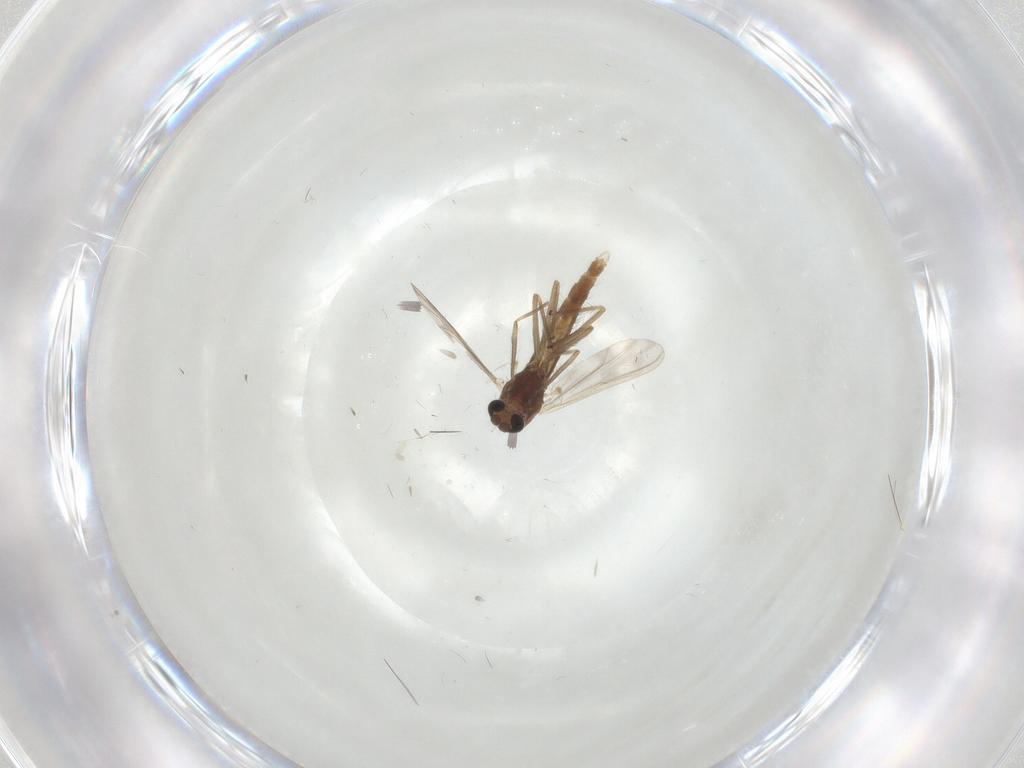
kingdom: Animalia
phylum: Arthropoda
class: Insecta
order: Diptera
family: Chironomidae
